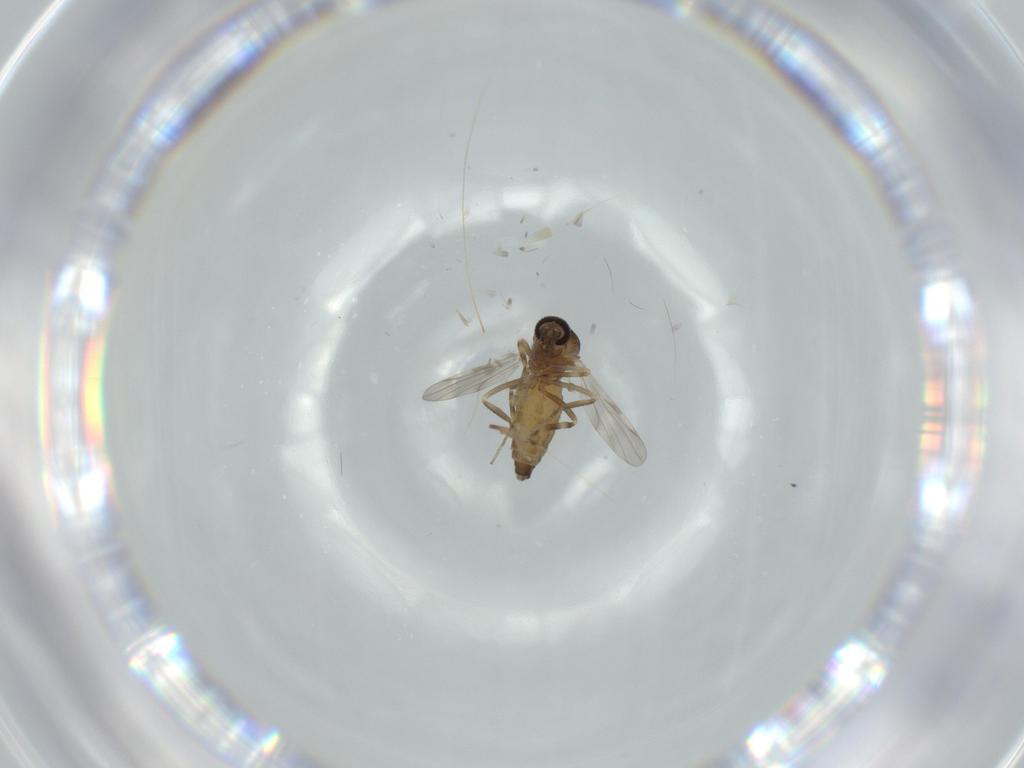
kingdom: Animalia
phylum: Arthropoda
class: Insecta
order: Diptera
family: Ceratopogonidae
